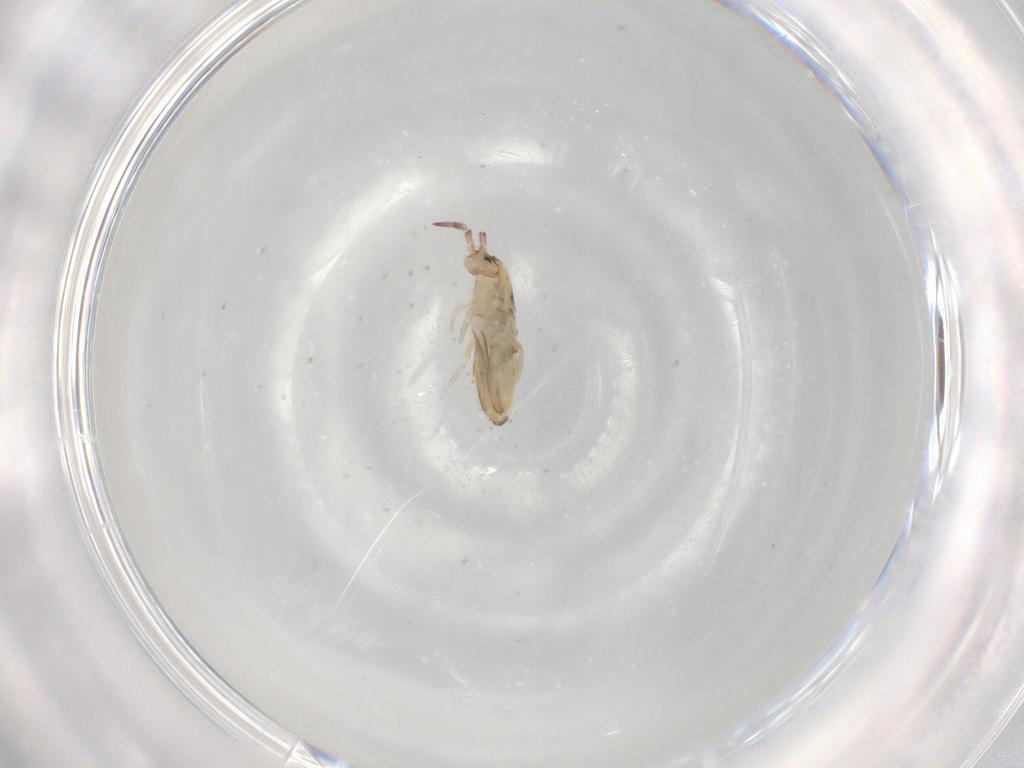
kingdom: Animalia
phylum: Arthropoda
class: Collembola
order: Entomobryomorpha
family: Entomobryidae
